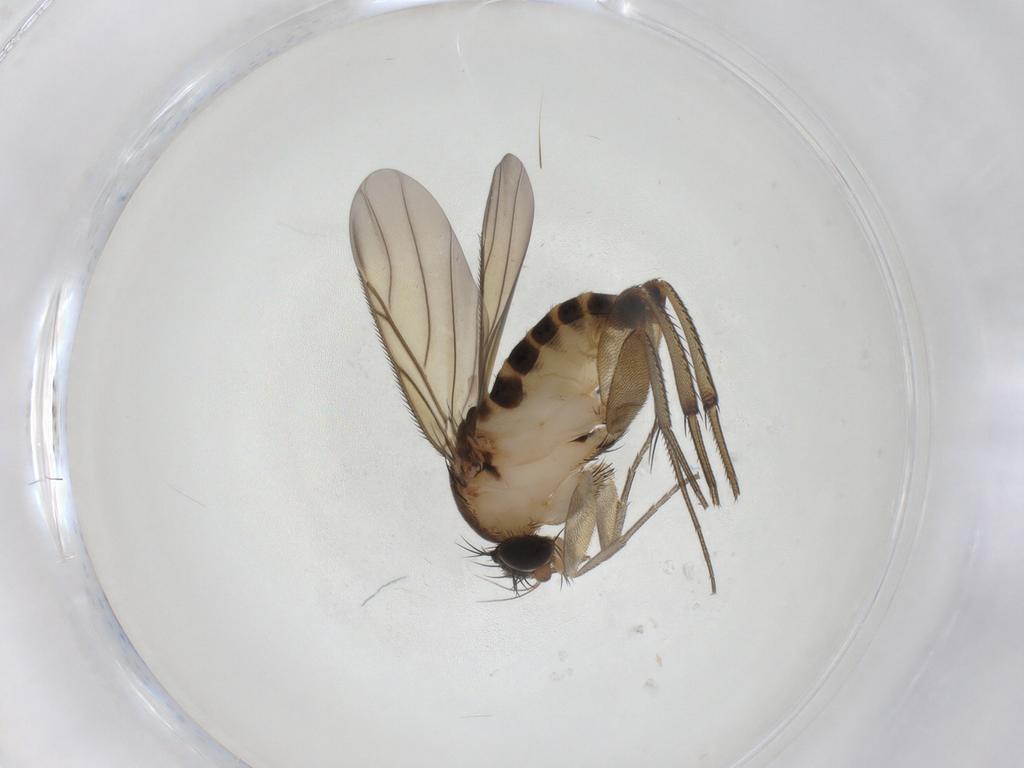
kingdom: Animalia
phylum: Arthropoda
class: Insecta
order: Diptera
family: Phoridae
